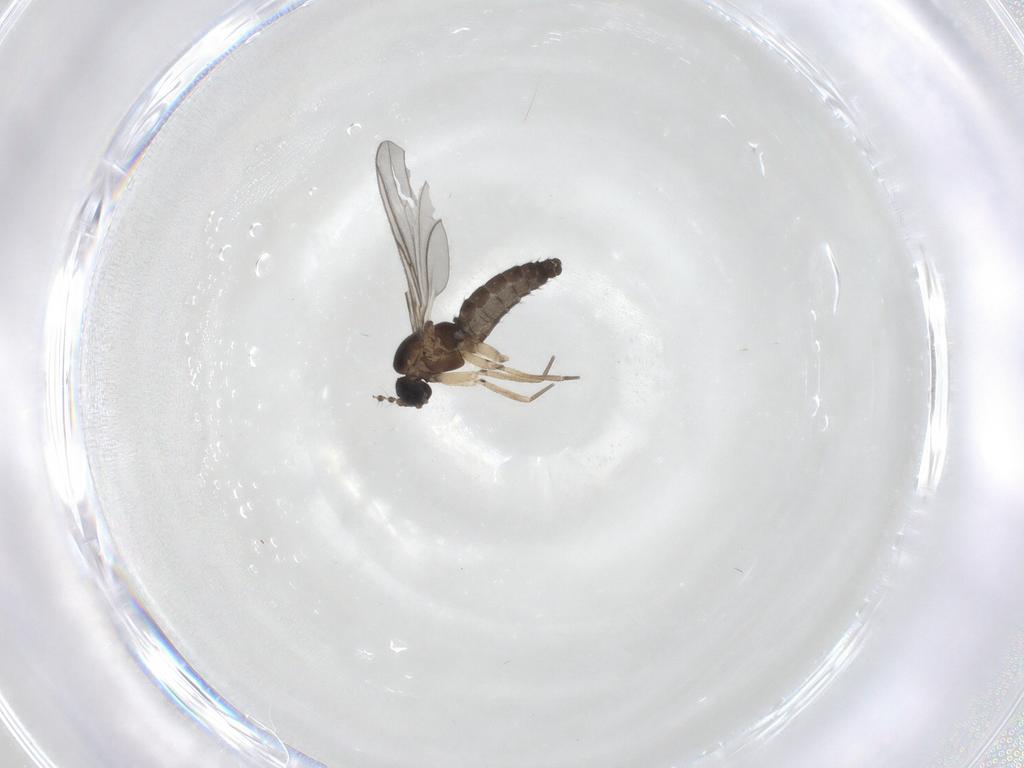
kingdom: Animalia
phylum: Arthropoda
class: Insecta
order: Diptera
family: Sciaridae
